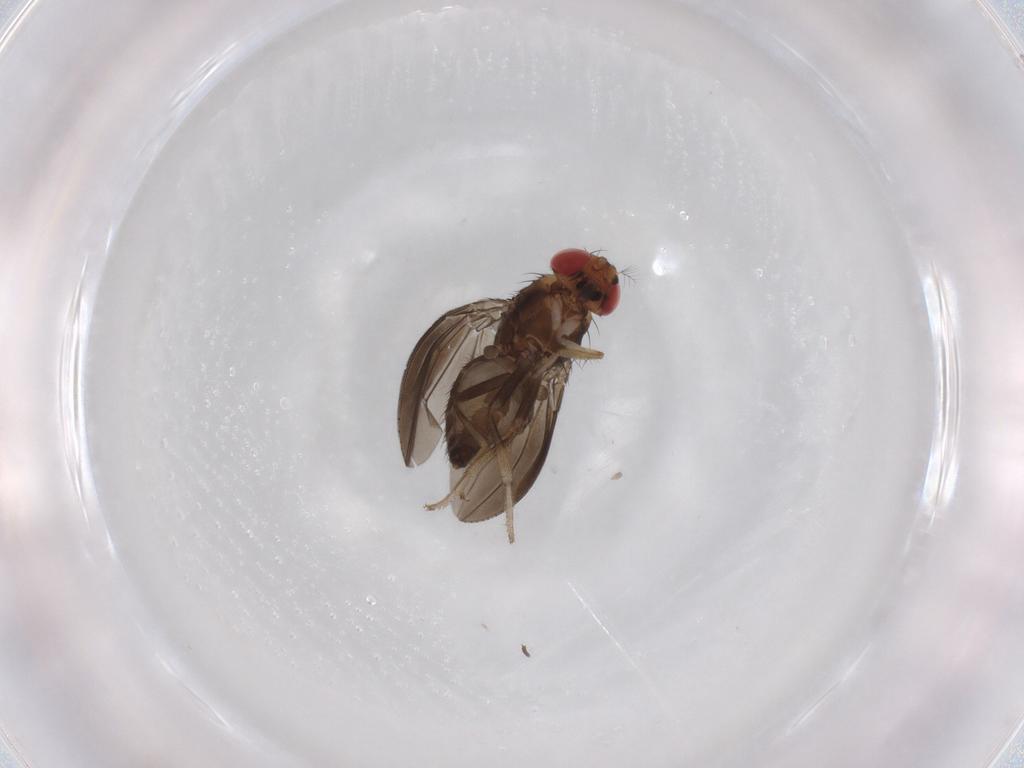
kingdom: Animalia
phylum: Arthropoda
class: Insecta
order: Diptera
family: Drosophilidae
